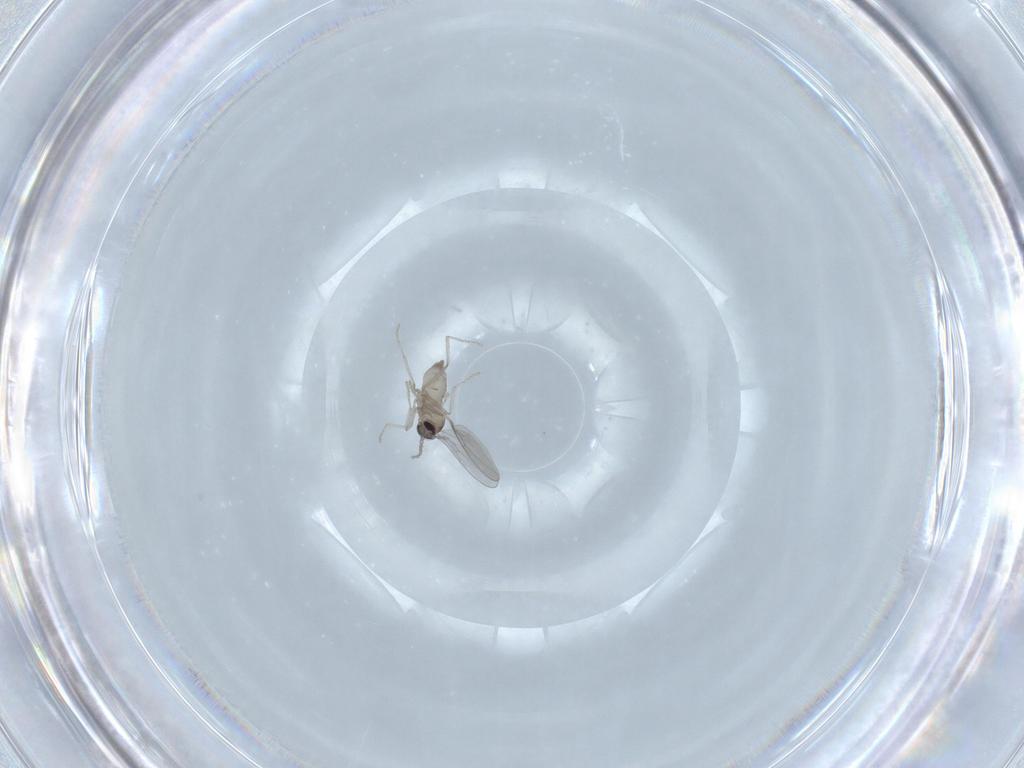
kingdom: Animalia
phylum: Arthropoda
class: Insecta
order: Diptera
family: Cecidomyiidae
